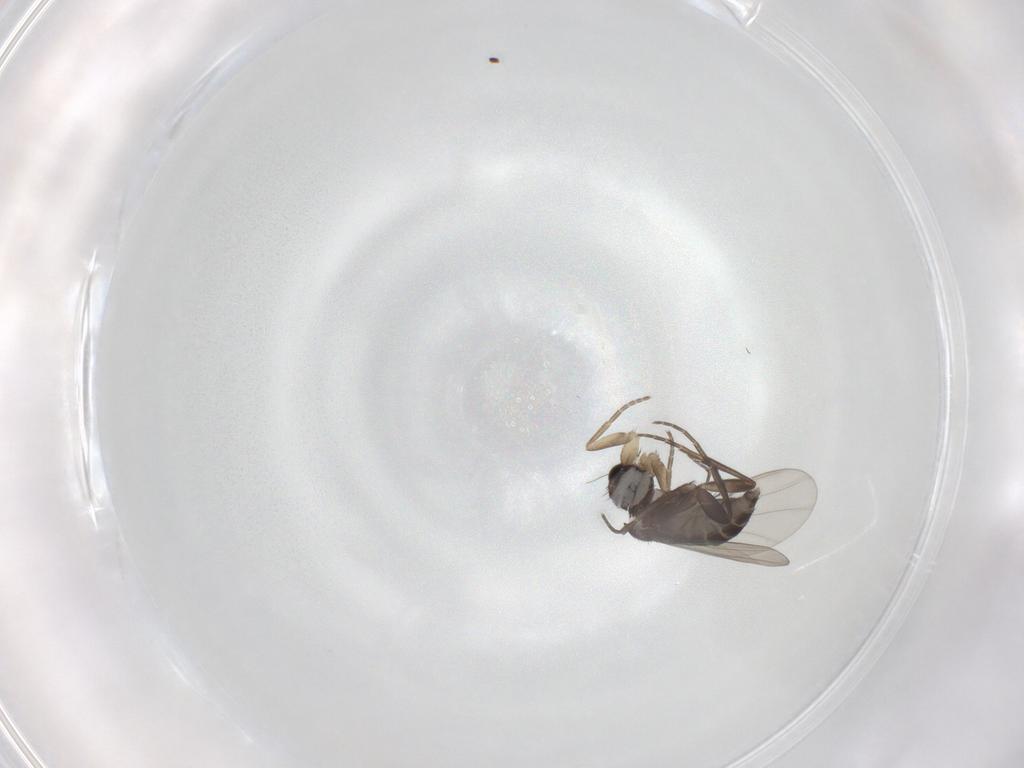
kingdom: Animalia
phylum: Arthropoda
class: Insecta
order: Diptera
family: Phoridae
